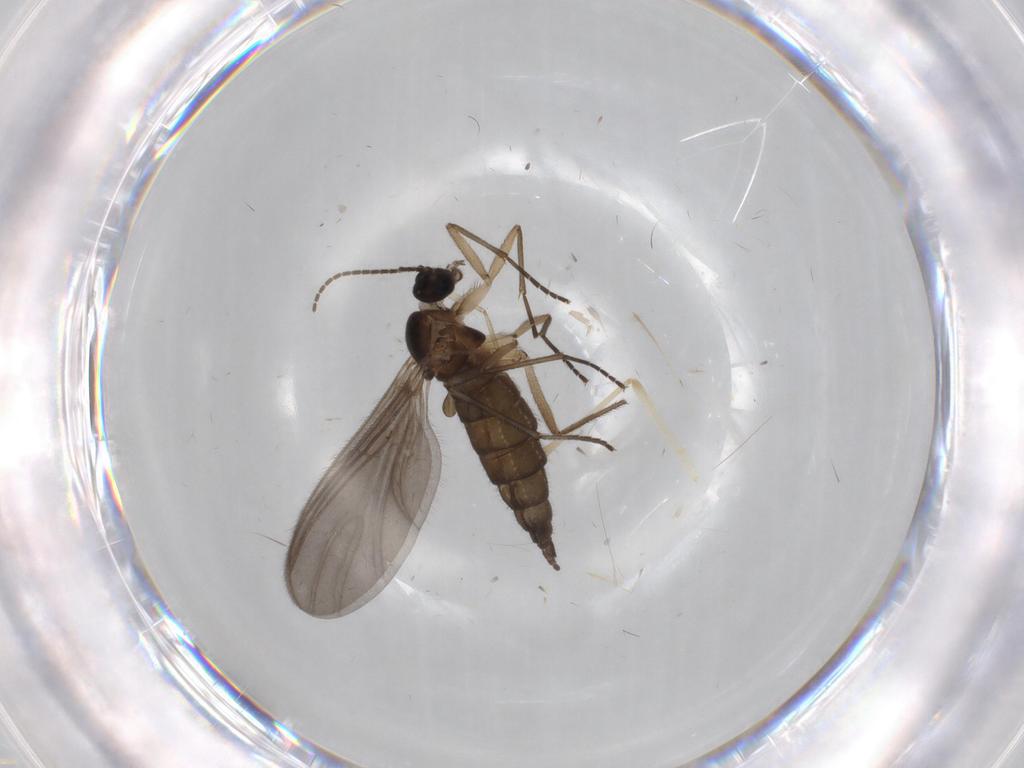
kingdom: Animalia
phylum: Arthropoda
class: Insecta
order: Diptera
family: Sciaridae
